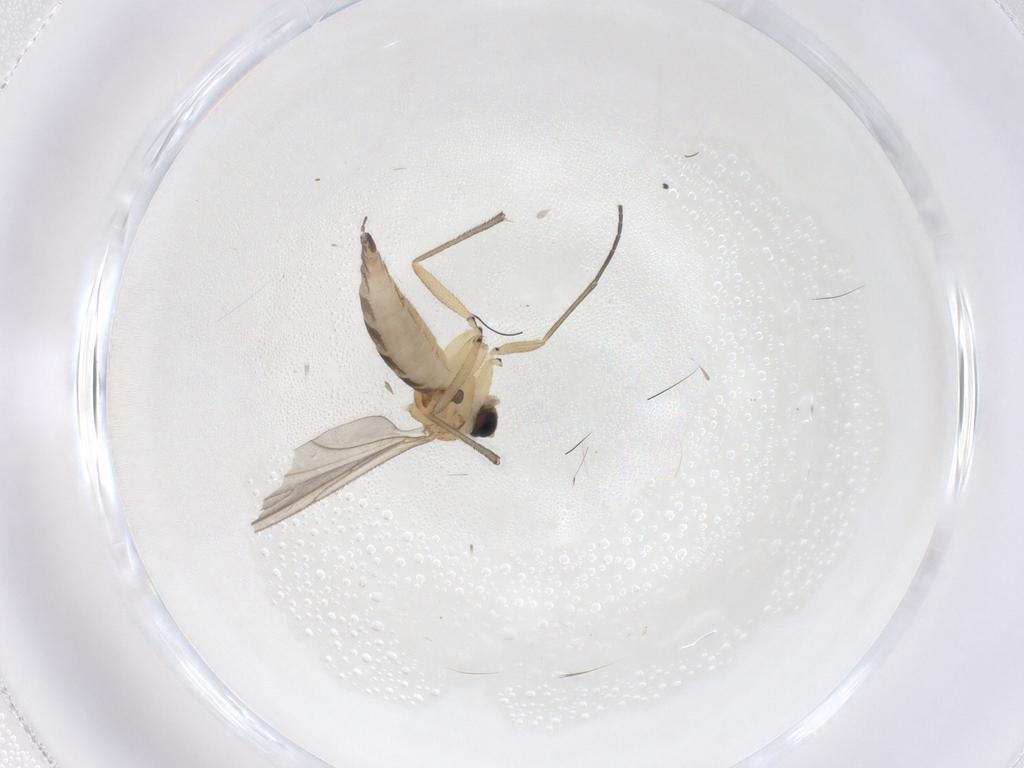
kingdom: Animalia
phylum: Arthropoda
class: Insecta
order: Diptera
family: Sciaridae
